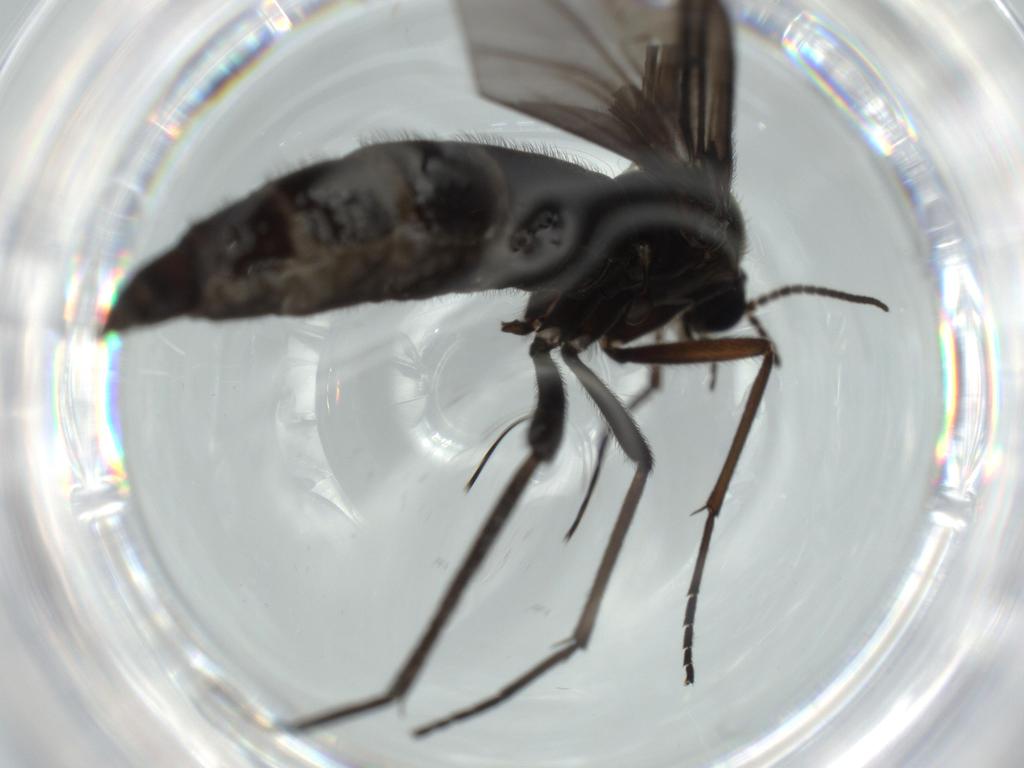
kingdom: Animalia
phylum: Arthropoda
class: Insecta
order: Diptera
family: Sciaridae
